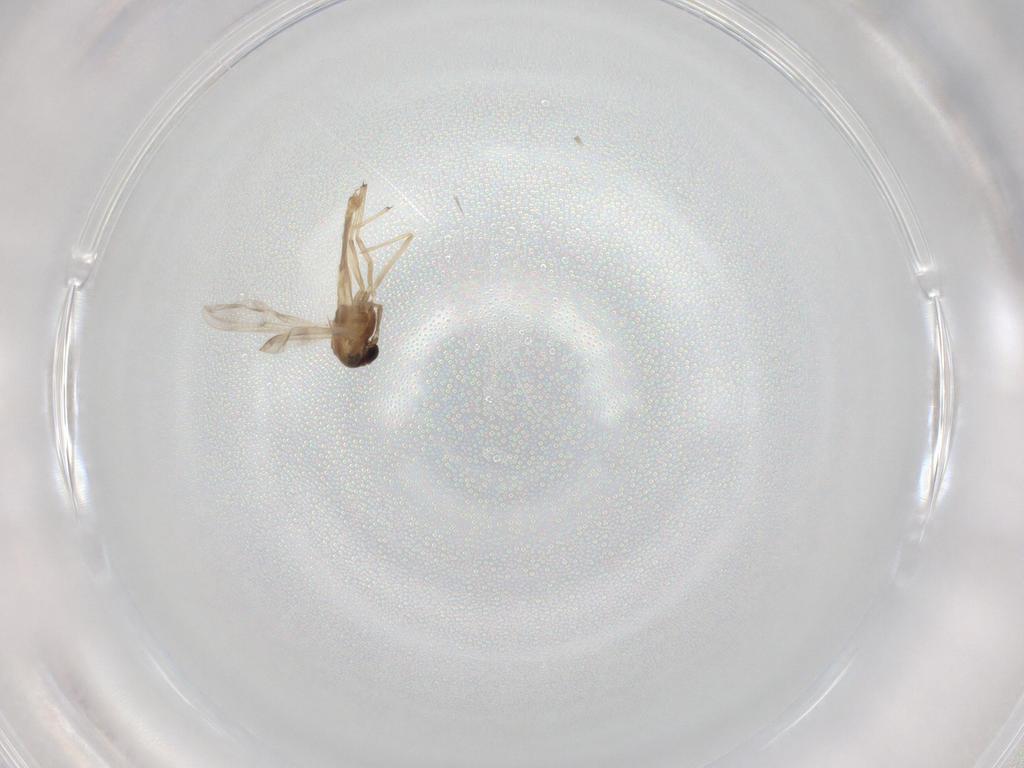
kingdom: Animalia
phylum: Arthropoda
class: Insecta
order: Diptera
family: Chironomidae
